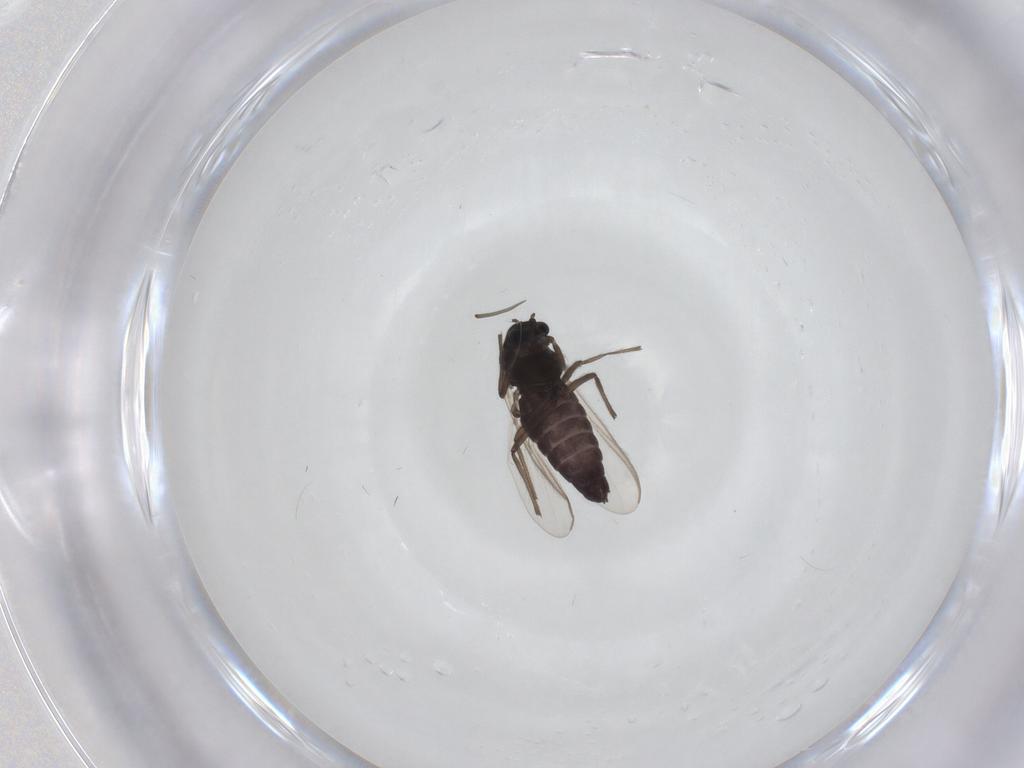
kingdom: Animalia
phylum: Arthropoda
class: Insecta
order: Diptera
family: Chironomidae
